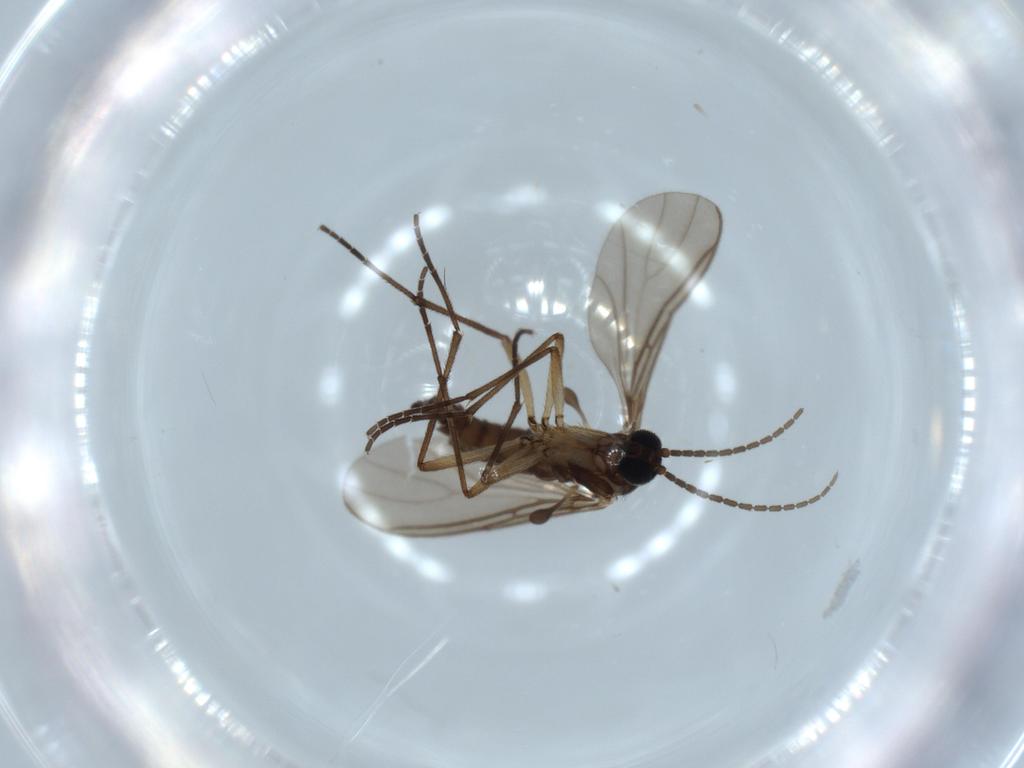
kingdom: Animalia
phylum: Arthropoda
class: Insecta
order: Diptera
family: Sciaridae
